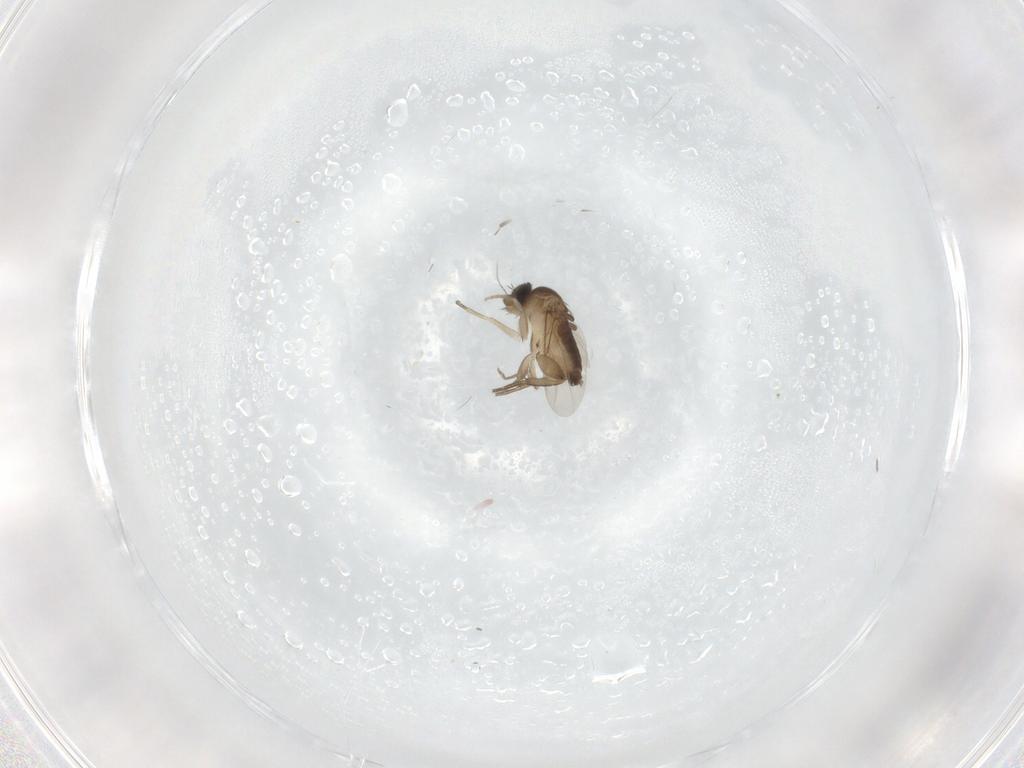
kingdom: Animalia
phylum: Arthropoda
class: Insecta
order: Diptera
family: Phoridae
